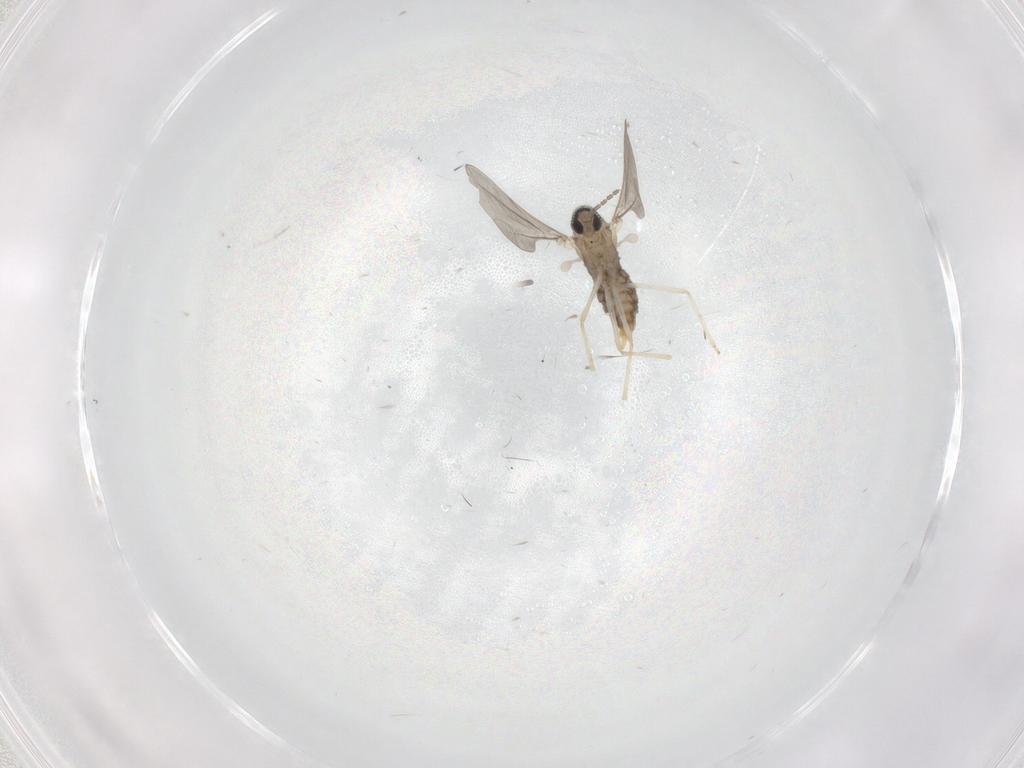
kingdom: Animalia
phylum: Arthropoda
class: Insecta
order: Diptera
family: Cecidomyiidae
